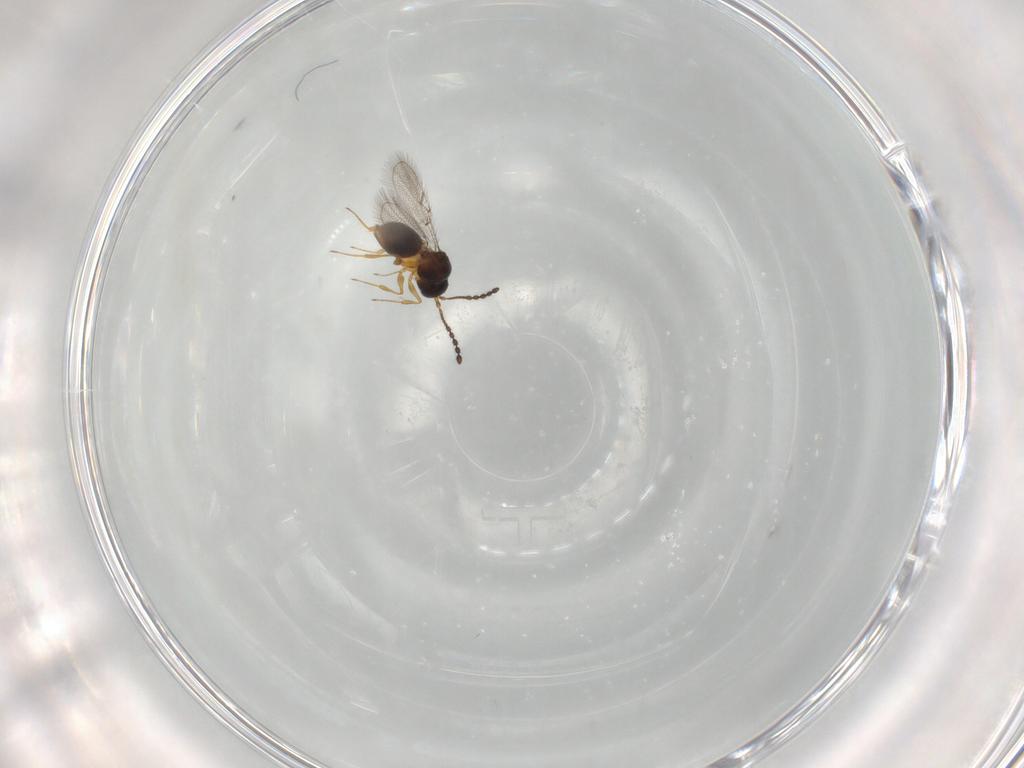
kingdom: Animalia
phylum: Arthropoda
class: Insecta
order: Hymenoptera
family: Figitidae
